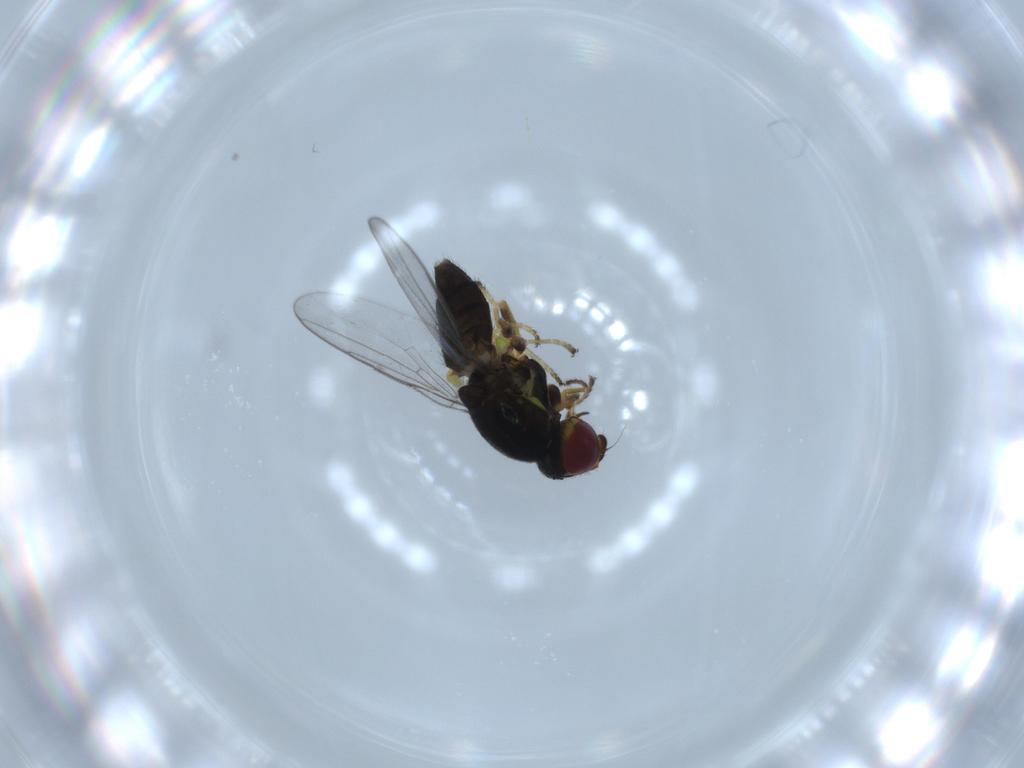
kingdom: Animalia
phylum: Arthropoda
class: Insecta
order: Diptera
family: Chloropidae
